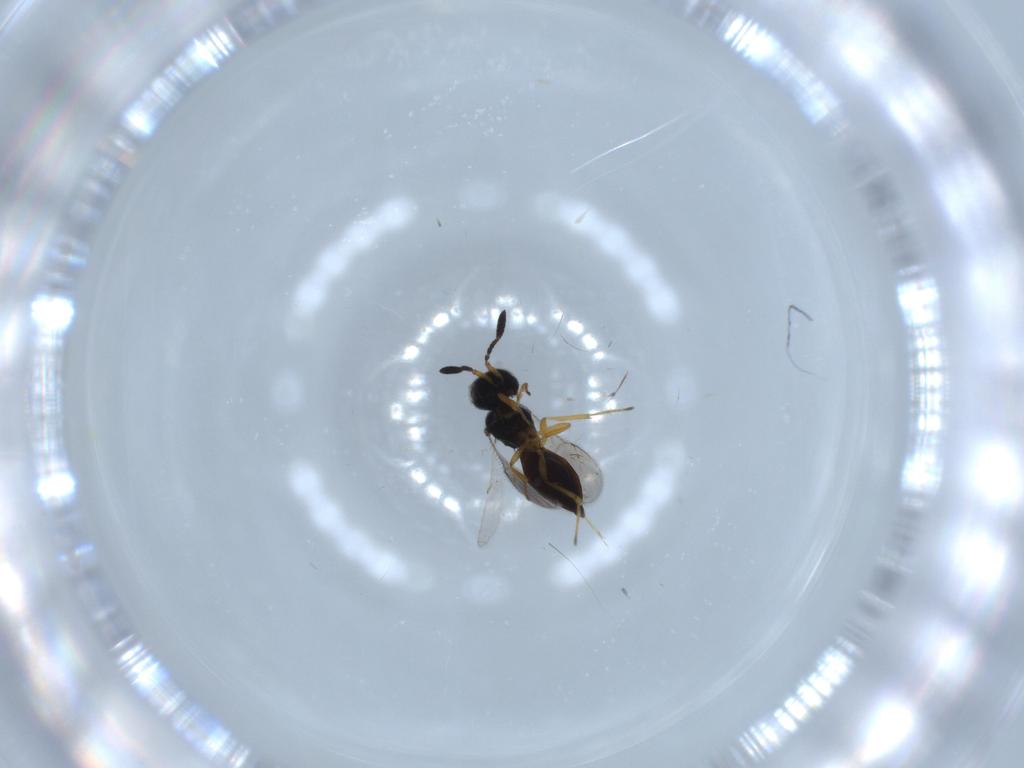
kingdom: Animalia
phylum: Arthropoda
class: Insecta
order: Hymenoptera
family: Scelionidae
